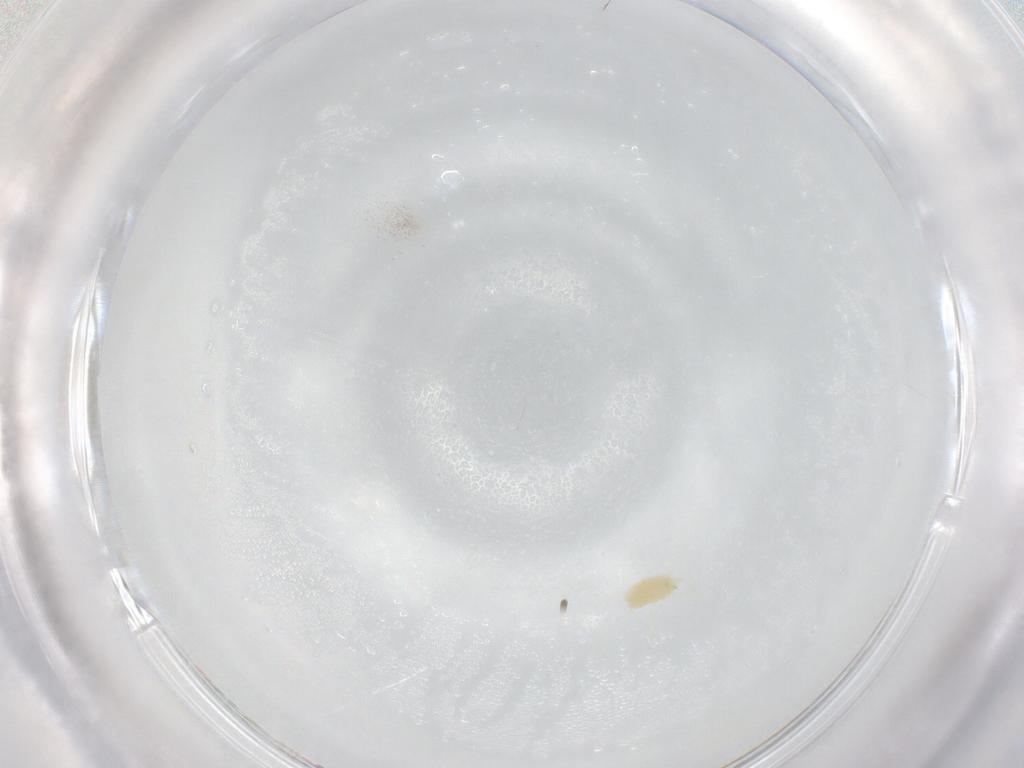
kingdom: Animalia
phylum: Arthropoda
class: Arachnida
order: Trombidiformes
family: Tetranychidae
